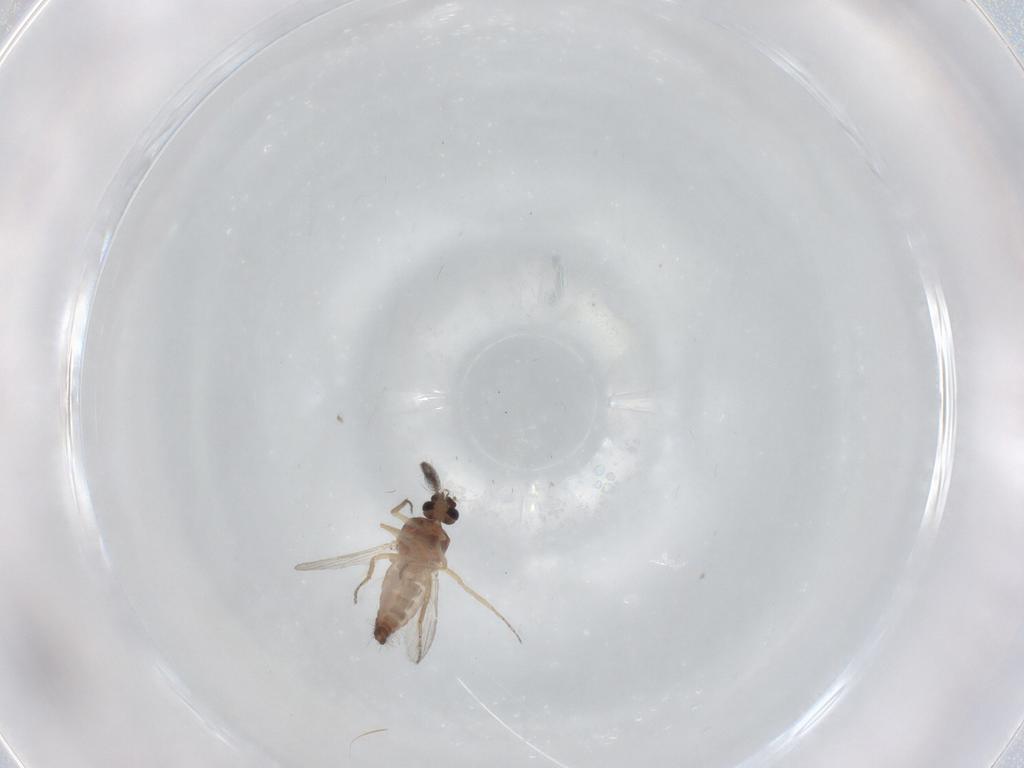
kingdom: Animalia
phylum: Arthropoda
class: Insecta
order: Diptera
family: Ceratopogonidae
